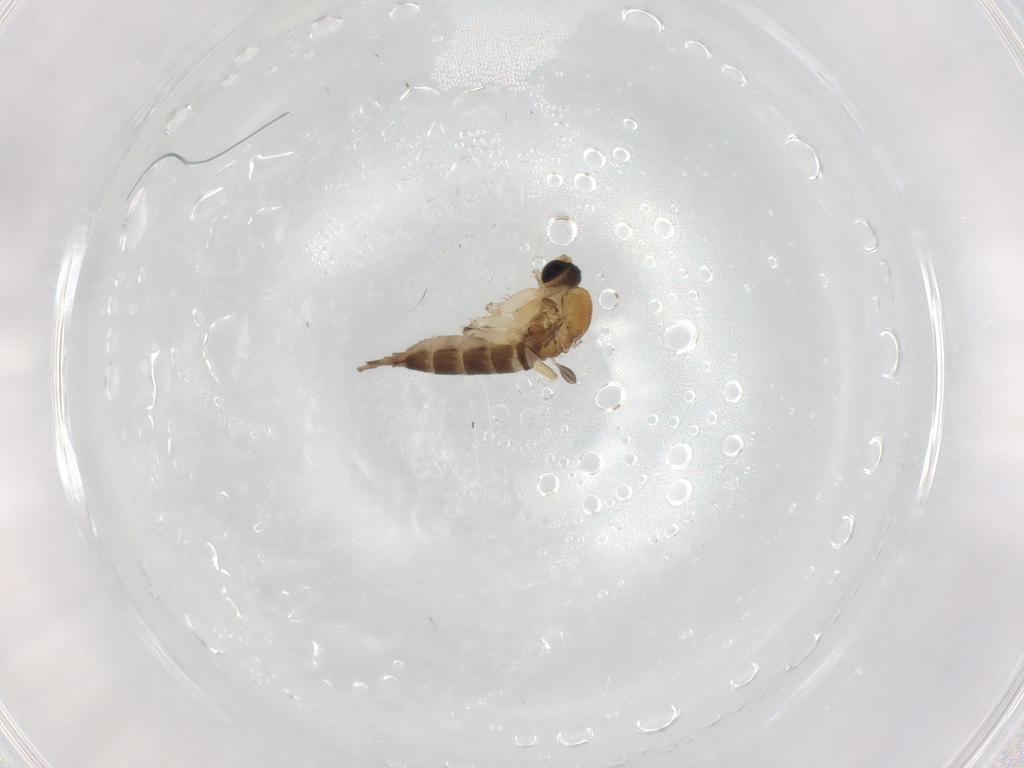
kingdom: Animalia
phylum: Arthropoda
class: Insecta
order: Diptera
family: Sciaridae
